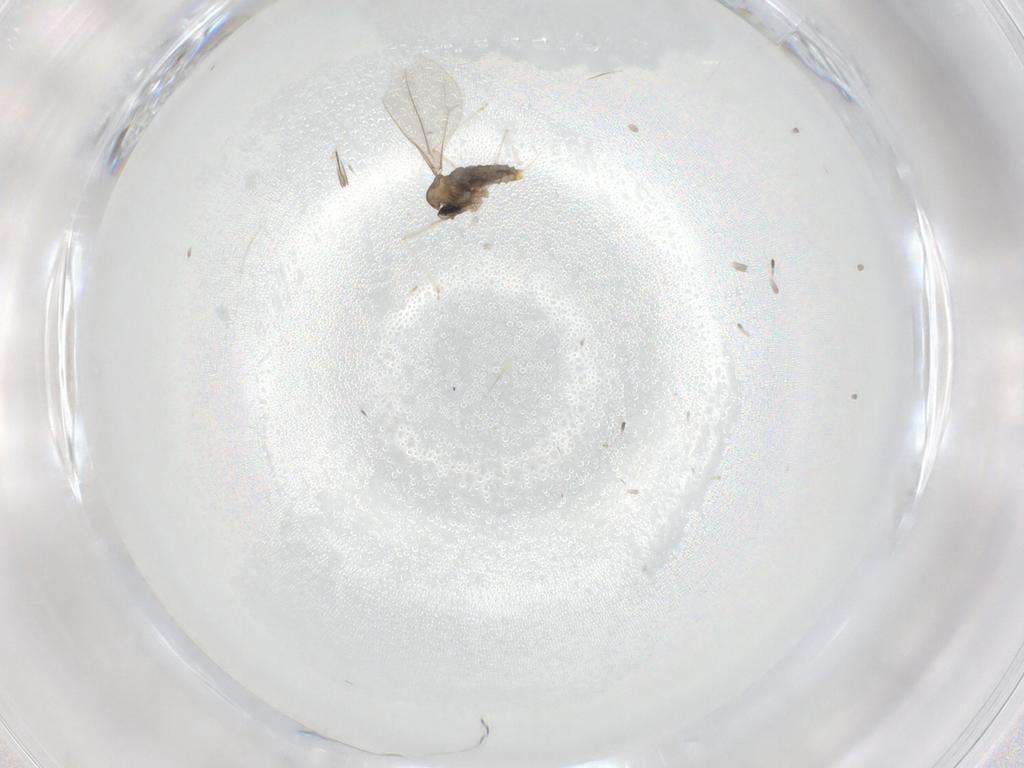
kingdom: Animalia
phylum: Arthropoda
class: Insecta
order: Diptera
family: Cecidomyiidae
